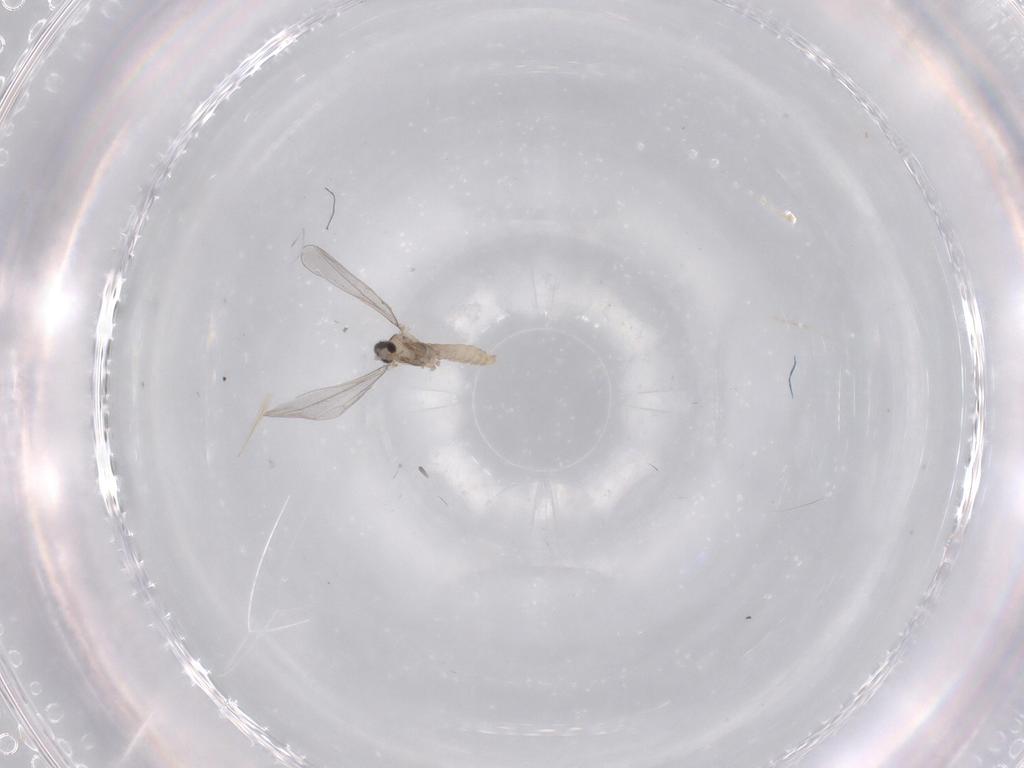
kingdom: Animalia
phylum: Arthropoda
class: Insecta
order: Diptera
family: Cecidomyiidae
